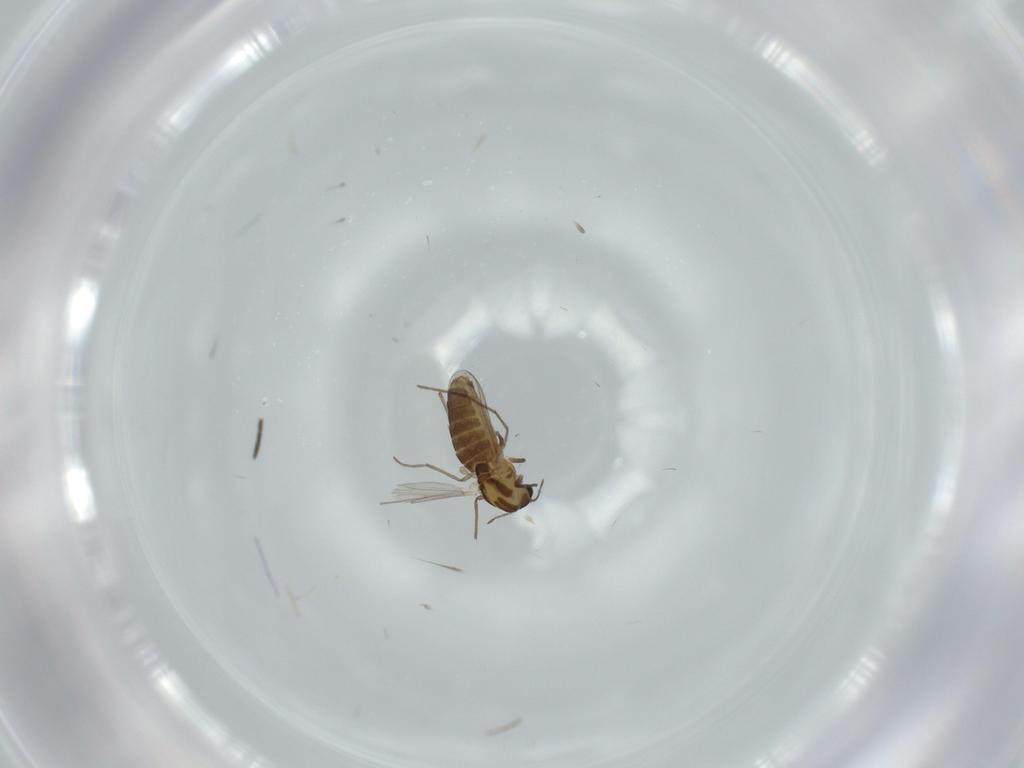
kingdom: Animalia
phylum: Arthropoda
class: Insecta
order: Diptera
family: Chironomidae
